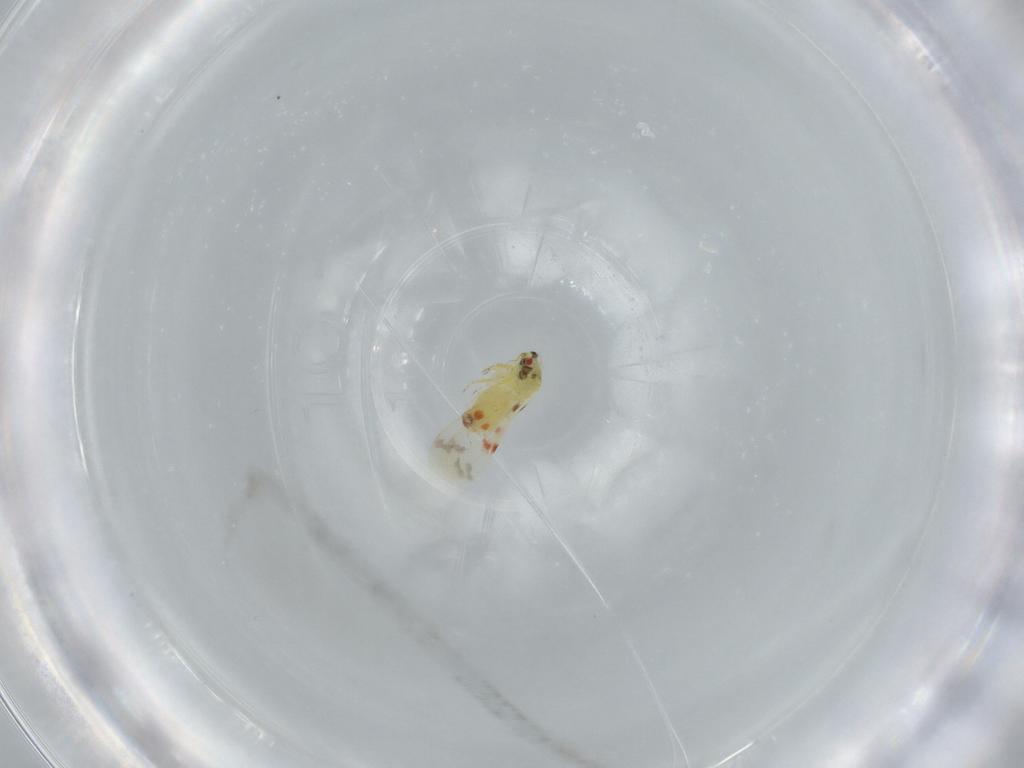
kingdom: Animalia
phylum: Arthropoda
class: Insecta
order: Hemiptera
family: Aleyrodidae
